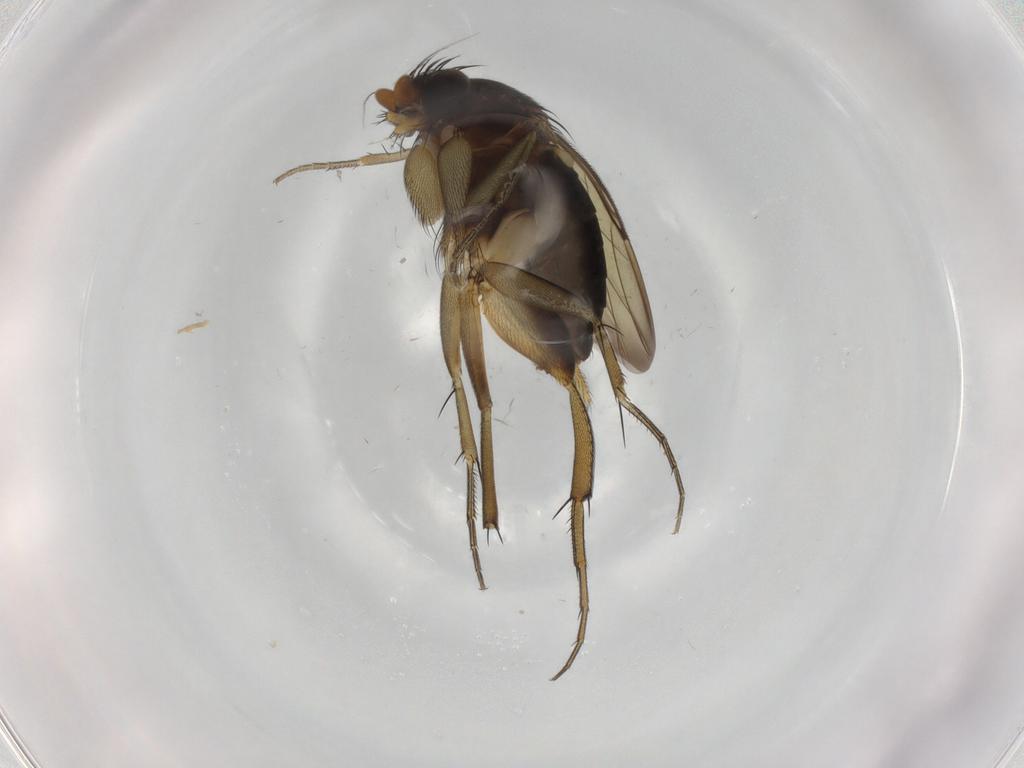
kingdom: Animalia
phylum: Arthropoda
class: Insecta
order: Diptera
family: Phoridae
